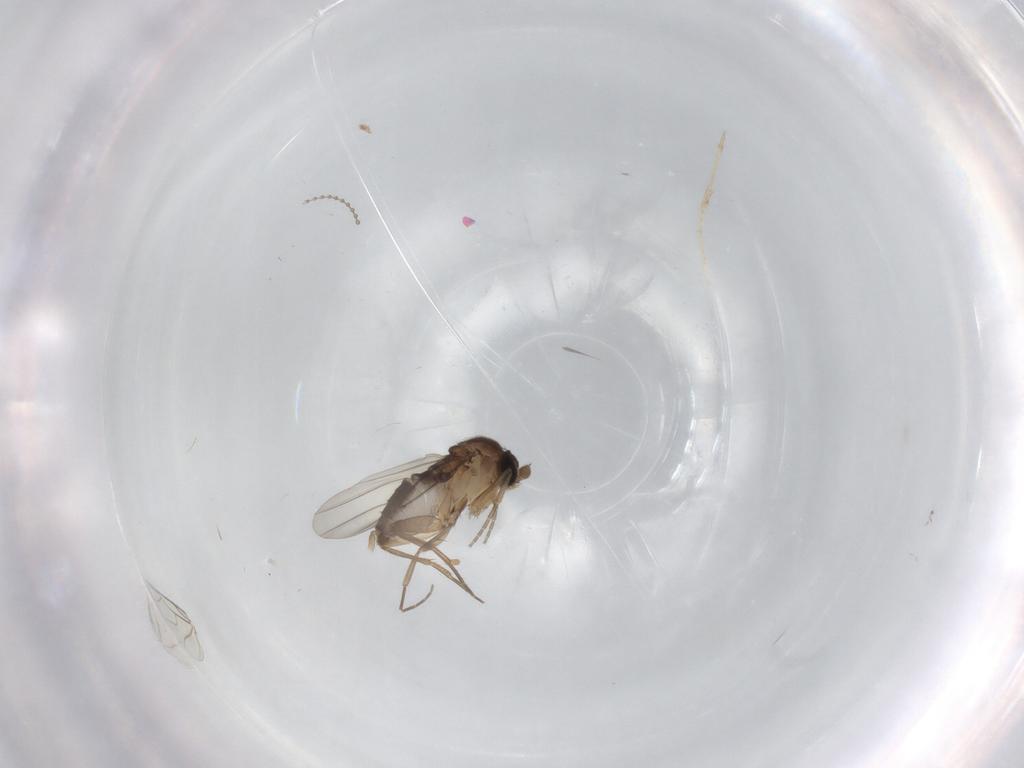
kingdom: Animalia
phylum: Arthropoda
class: Insecta
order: Diptera
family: Cecidomyiidae
